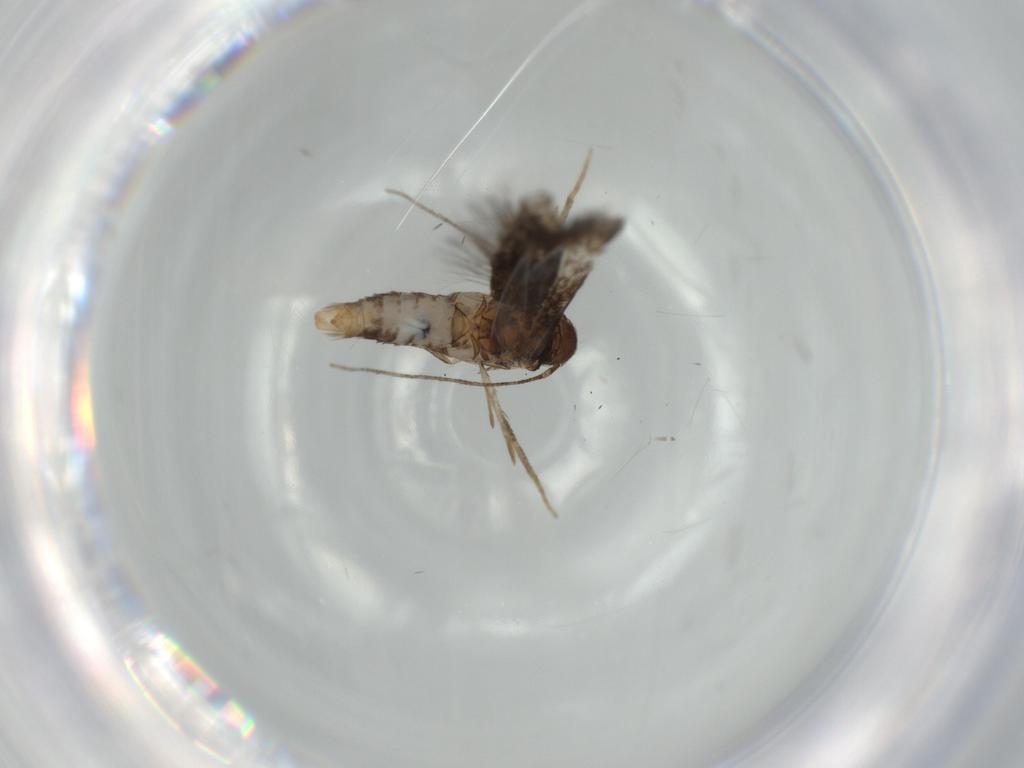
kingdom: Animalia
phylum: Arthropoda
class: Insecta
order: Lepidoptera
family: Gelechiidae
